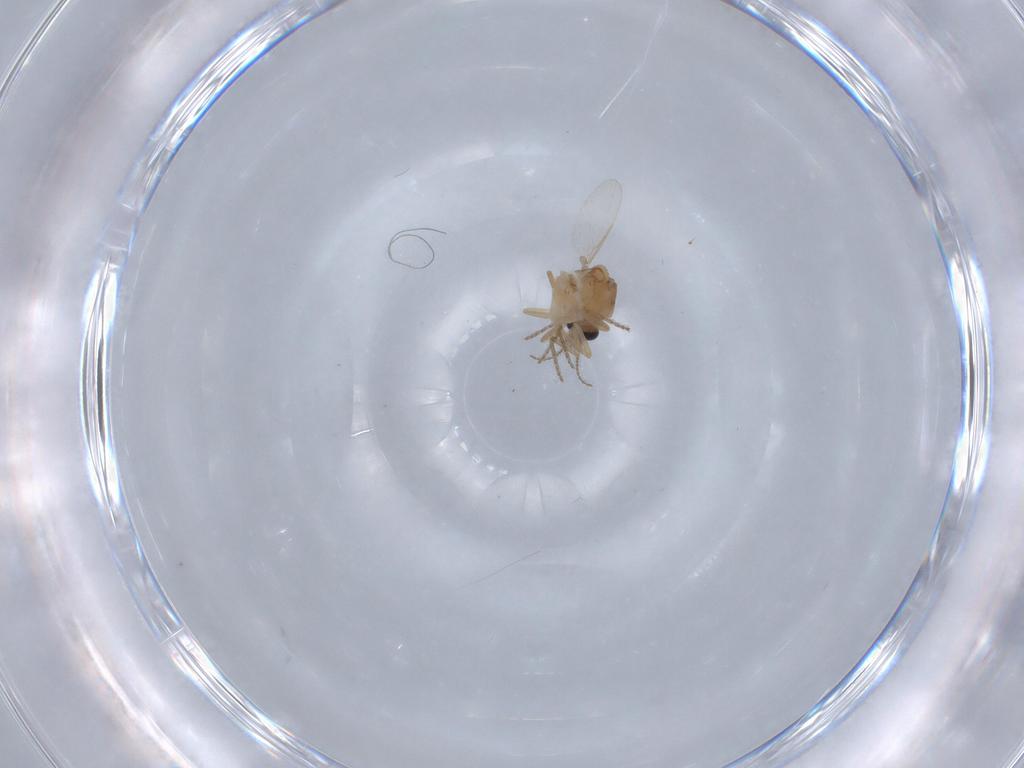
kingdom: Animalia
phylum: Arthropoda
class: Insecta
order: Diptera
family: Ceratopogonidae
